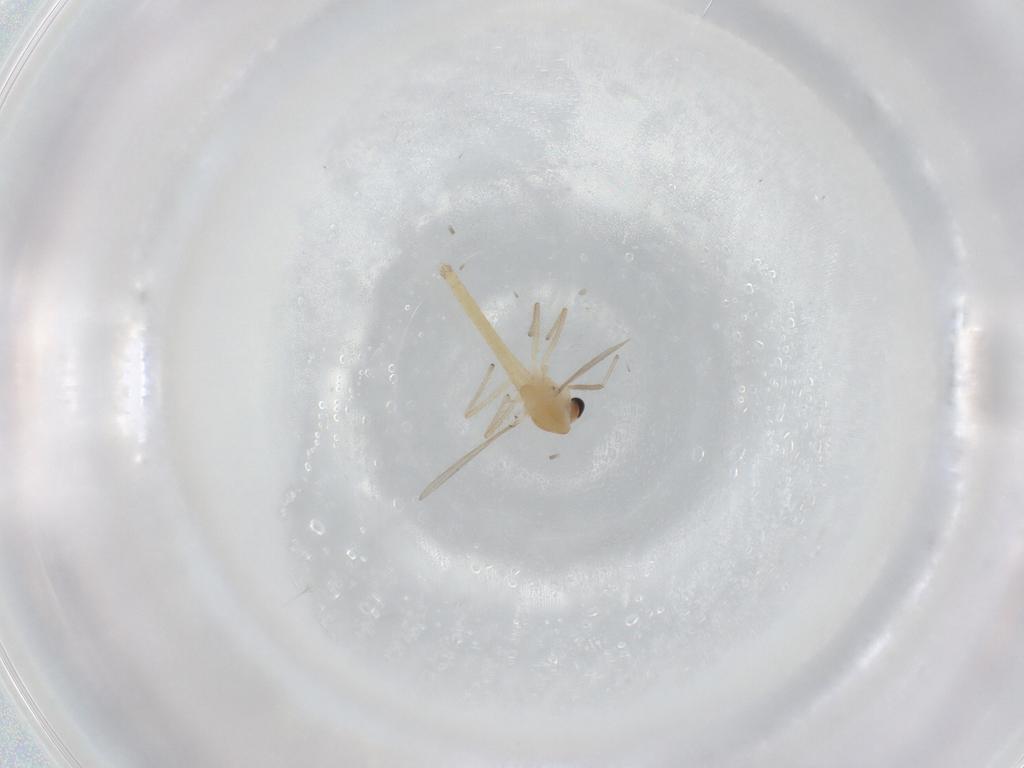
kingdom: Animalia
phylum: Arthropoda
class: Insecta
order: Diptera
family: Chironomidae
